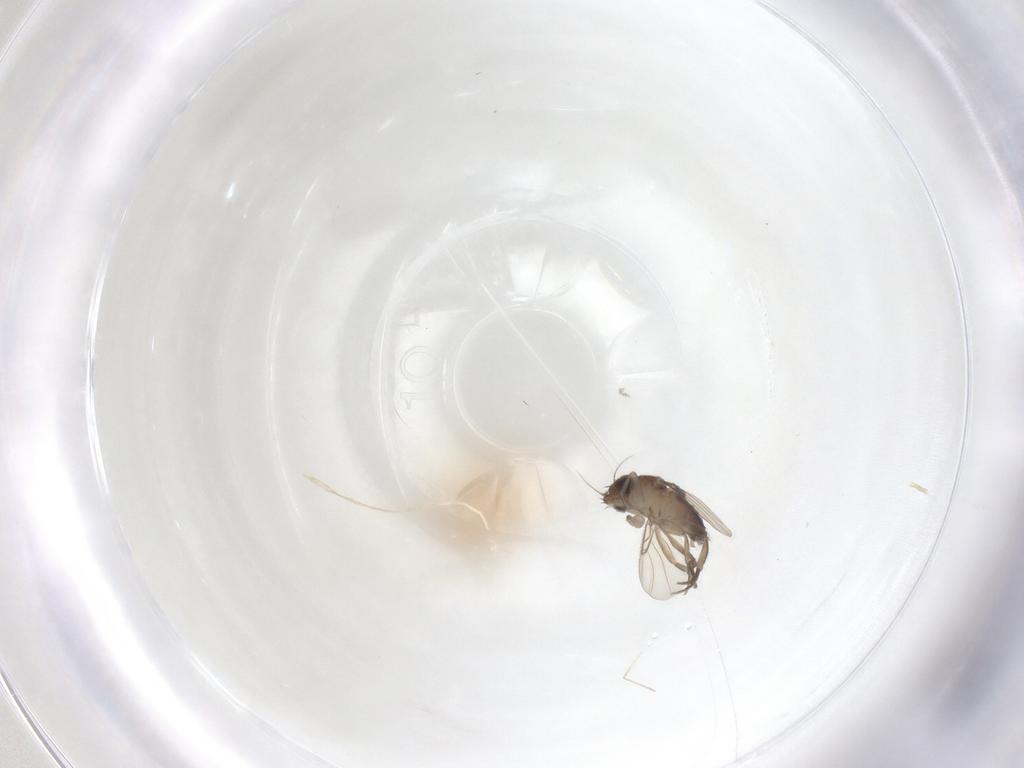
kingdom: Animalia
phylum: Arthropoda
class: Insecta
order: Diptera
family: Phoridae
